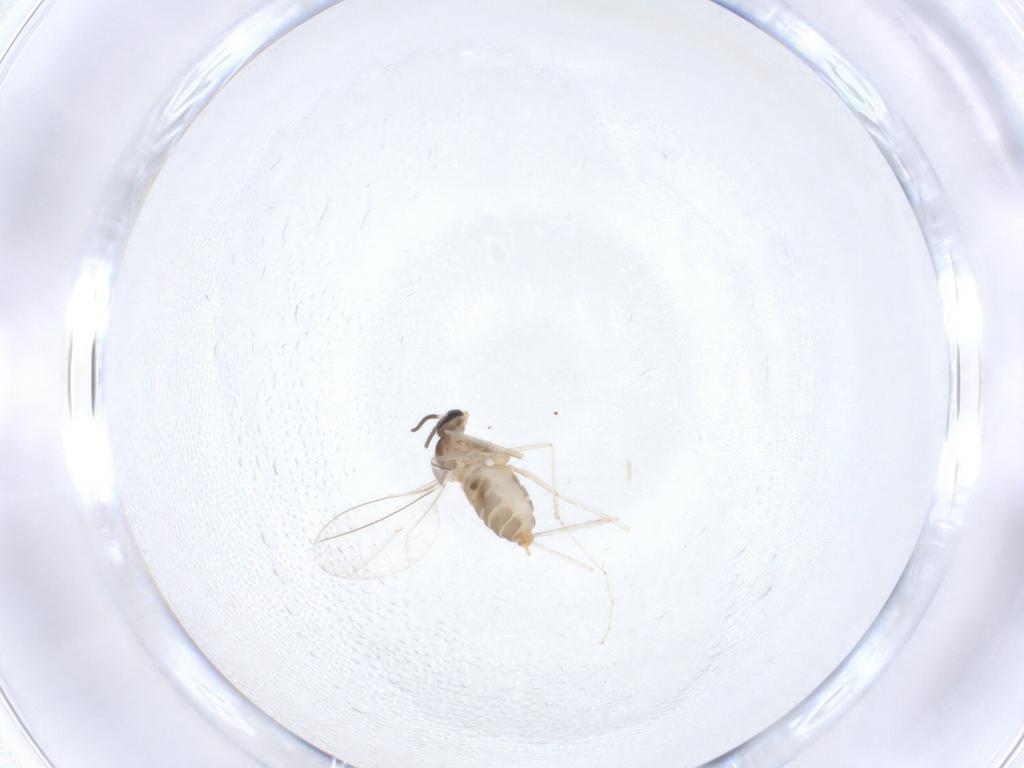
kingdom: Animalia
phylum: Arthropoda
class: Insecta
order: Diptera
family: Cecidomyiidae
